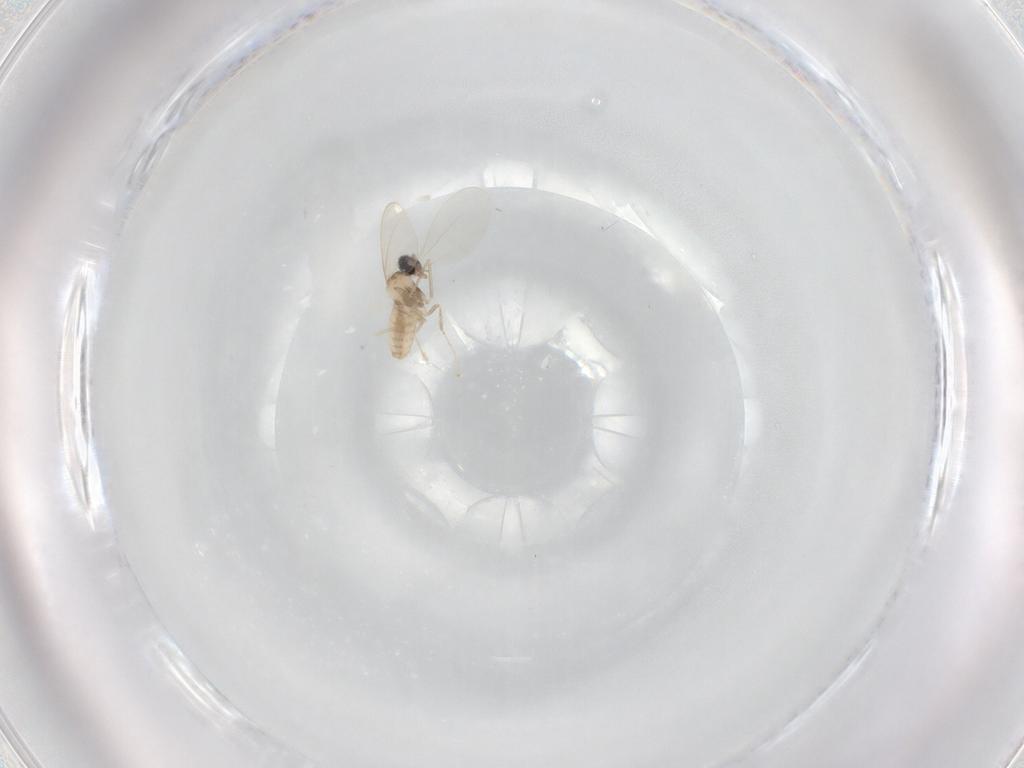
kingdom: Animalia
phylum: Arthropoda
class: Insecta
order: Diptera
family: Cecidomyiidae
